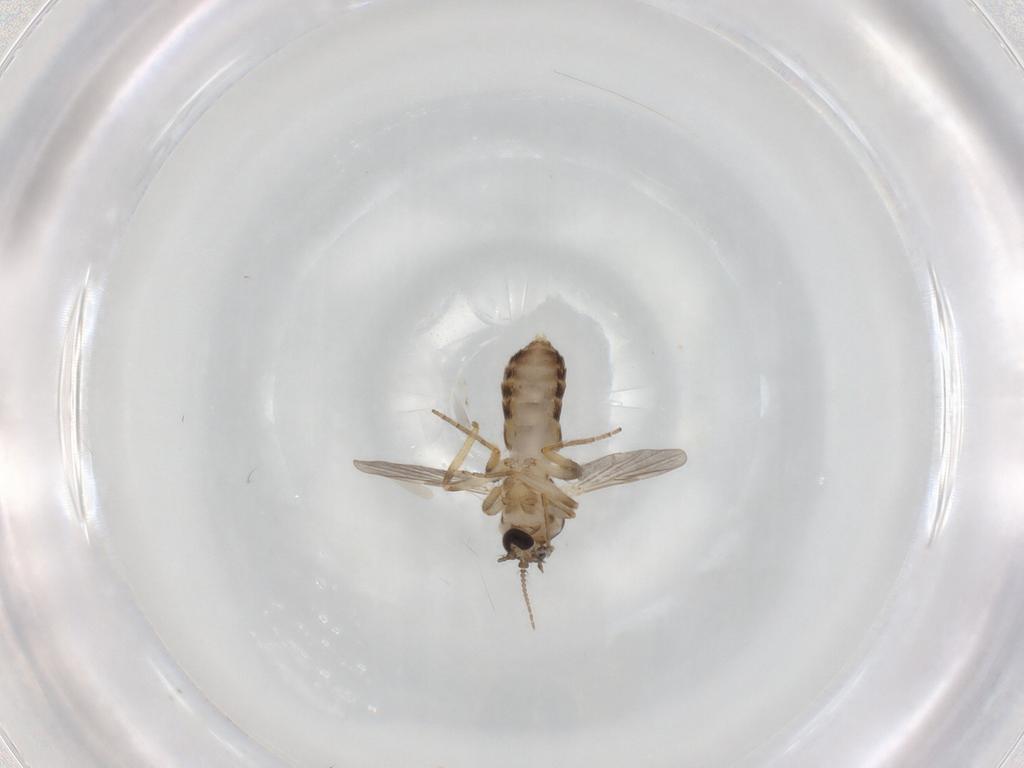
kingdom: Animalia
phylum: Arthropoda
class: Insecta
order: Diptera
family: Ceratopogonidae
